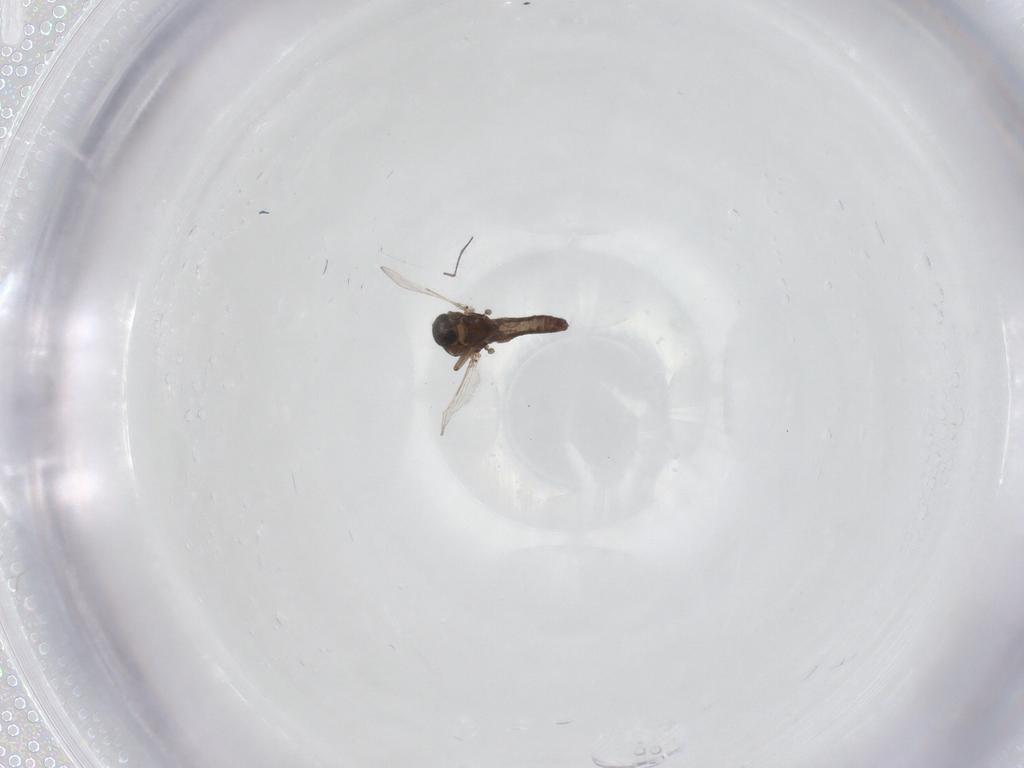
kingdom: Animalia
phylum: Arthropoda
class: Insecta
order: Diptera
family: Ceratopogonidae
